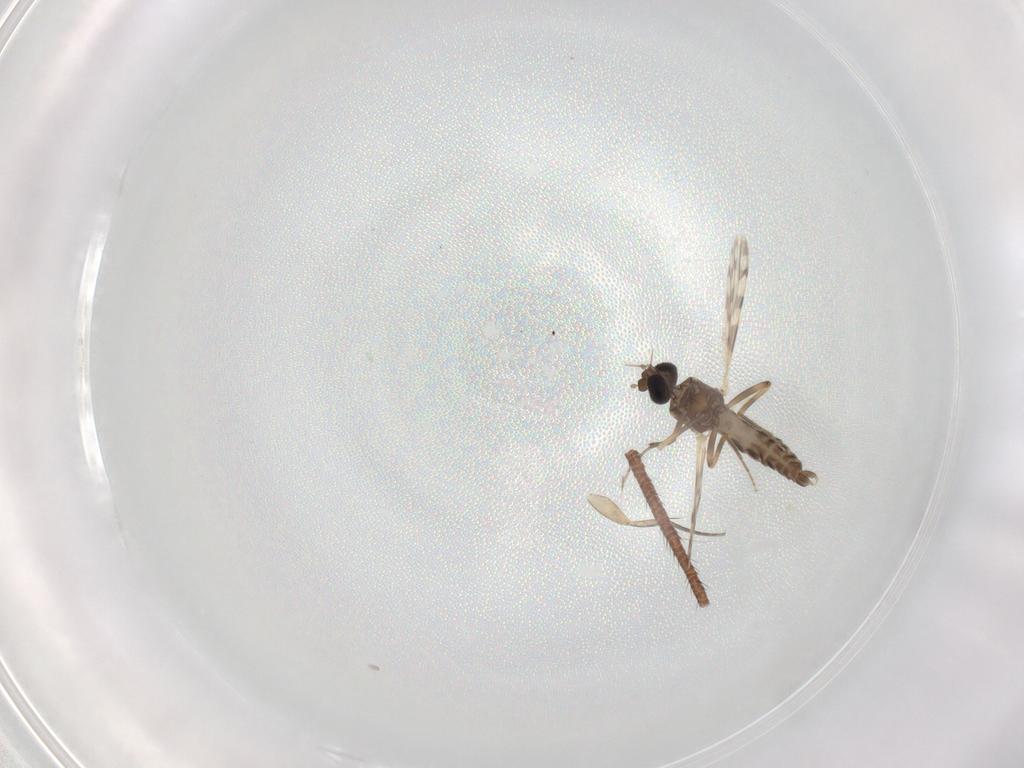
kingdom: Animalia
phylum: Arthropoda
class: Insecta
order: Diptera
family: Ceratopogonidae
